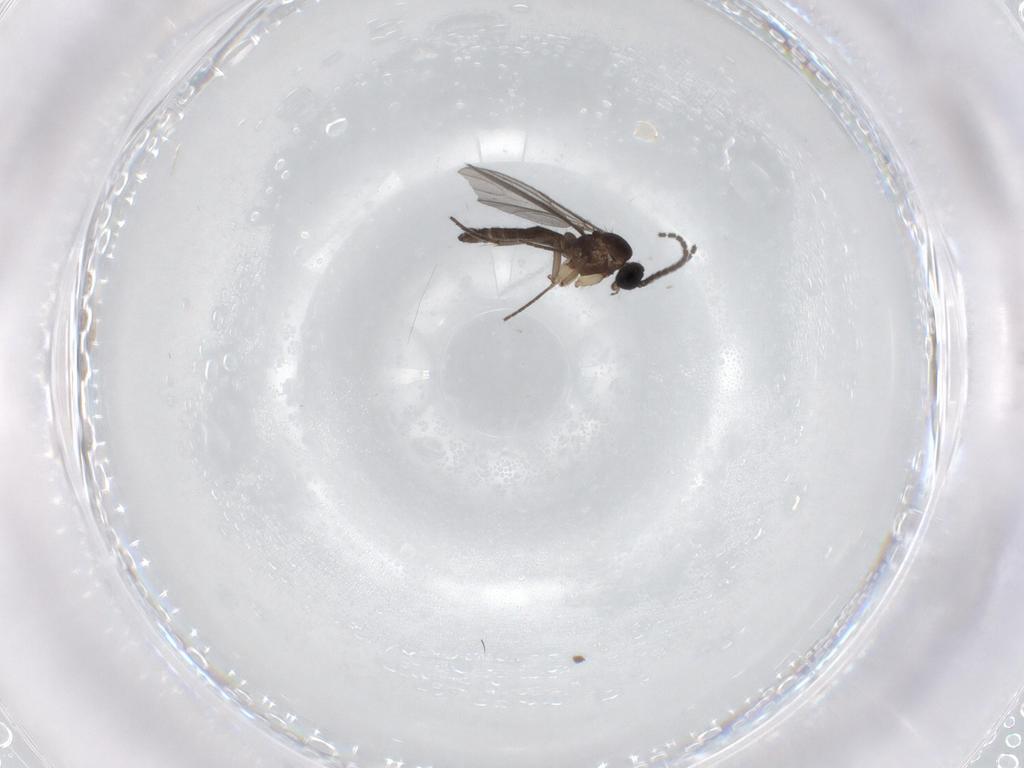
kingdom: Animalia
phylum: Arthropoda
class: Insecta
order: Diptera
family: Sciaridae
